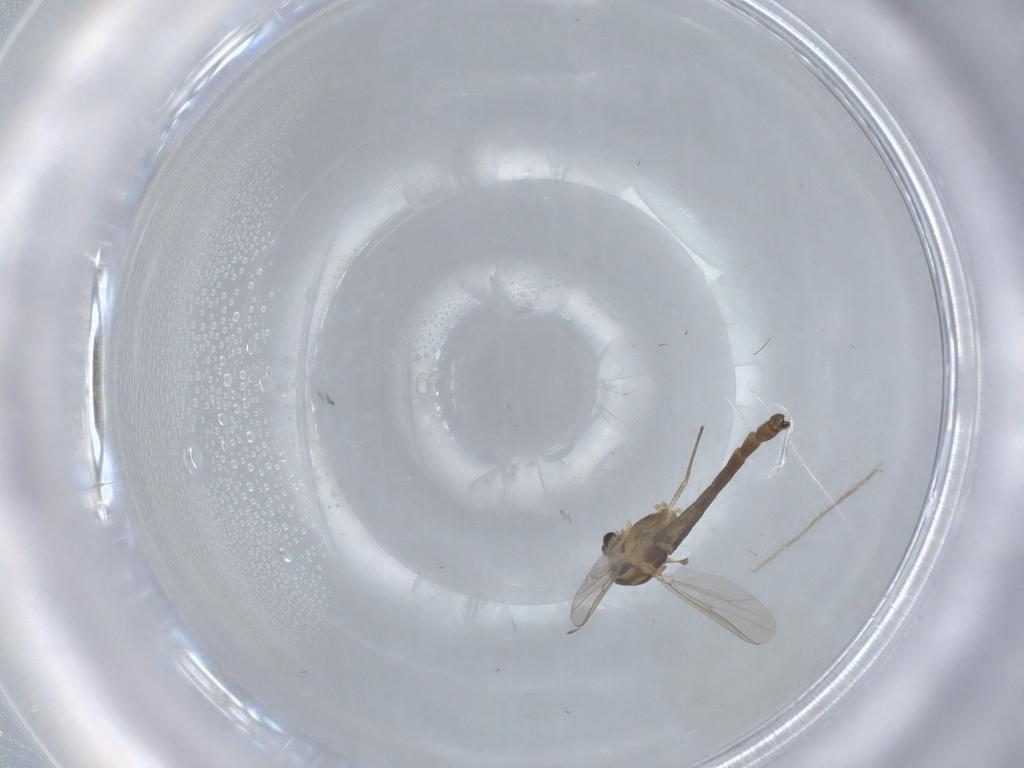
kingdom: Animalia
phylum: Arthropoda
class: Insecta
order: Diptera
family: Chironomidae
